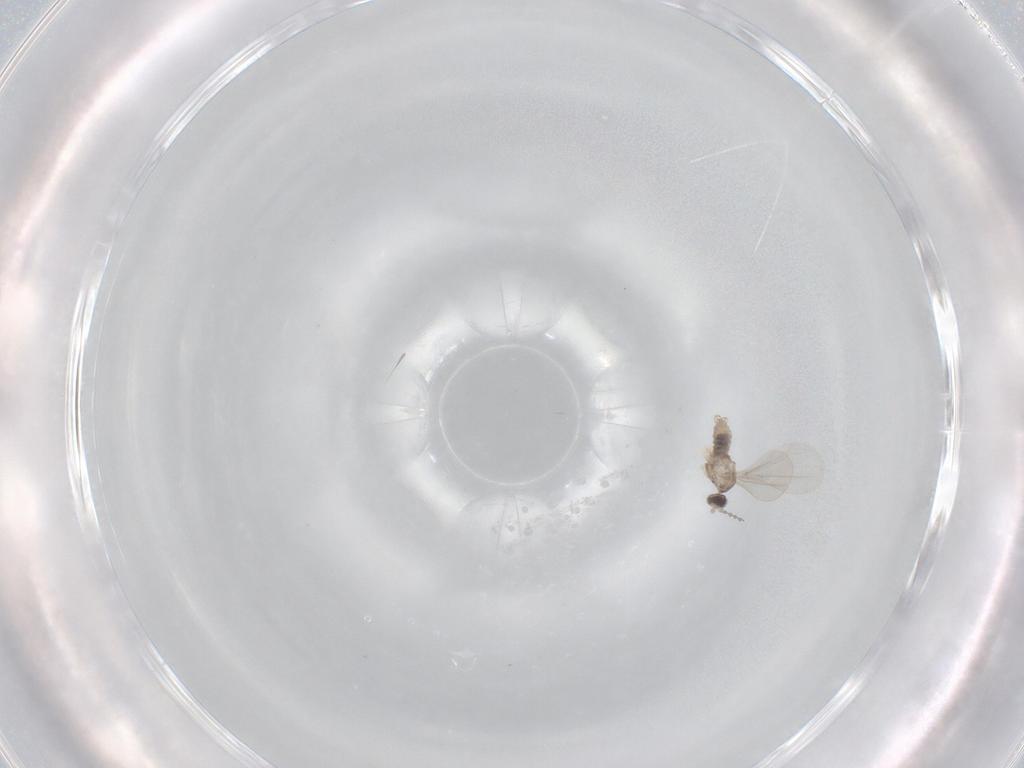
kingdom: Animalia
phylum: Arthropoda
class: Insecta
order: Diptera
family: Cecidomyiidae
